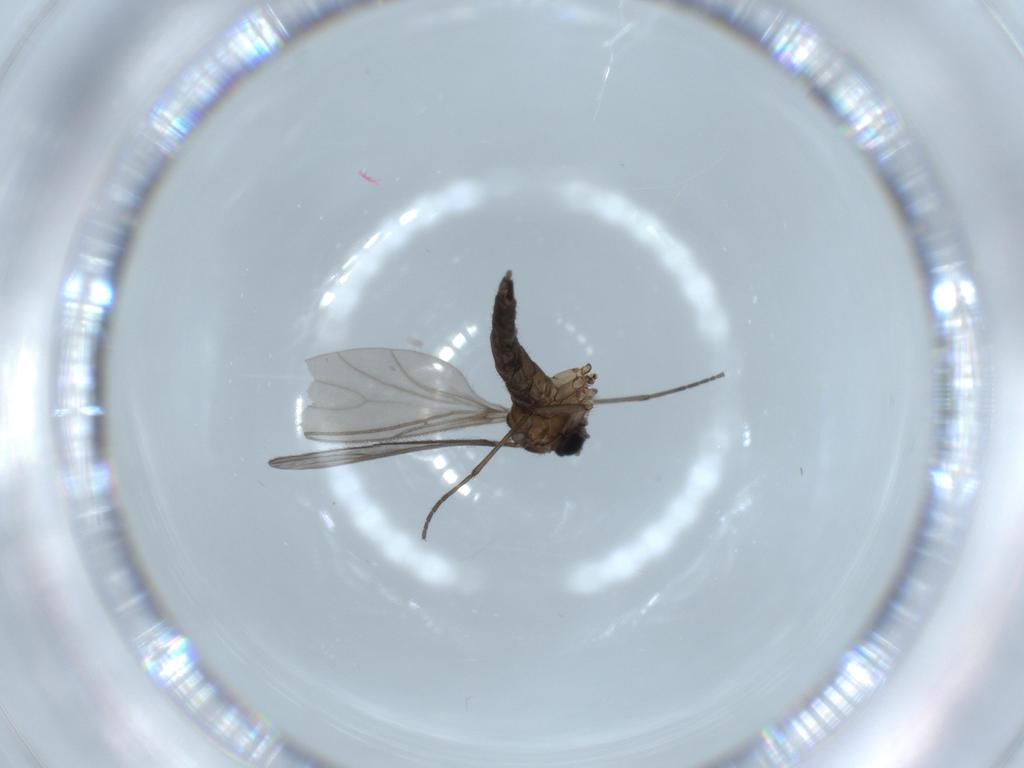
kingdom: Animalia
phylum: Arthropoda
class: Insecta
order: Diptera
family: Sciaridae
